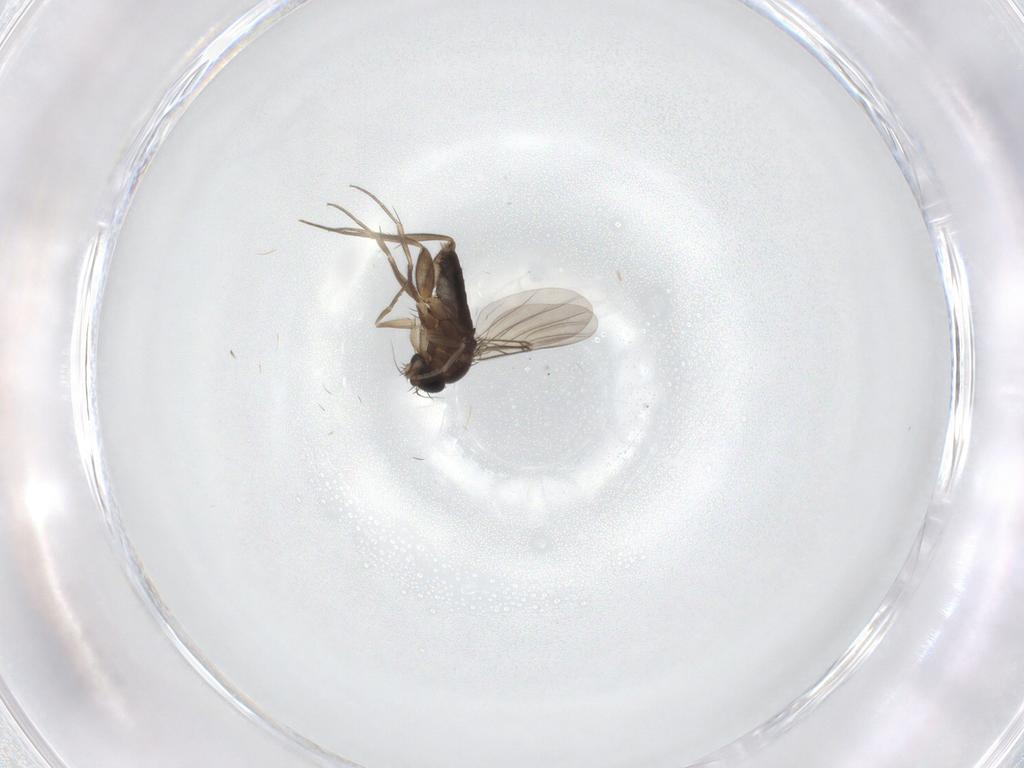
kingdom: Animalia
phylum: Arthropoda
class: Insecta
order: Diptera
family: Phoridae
